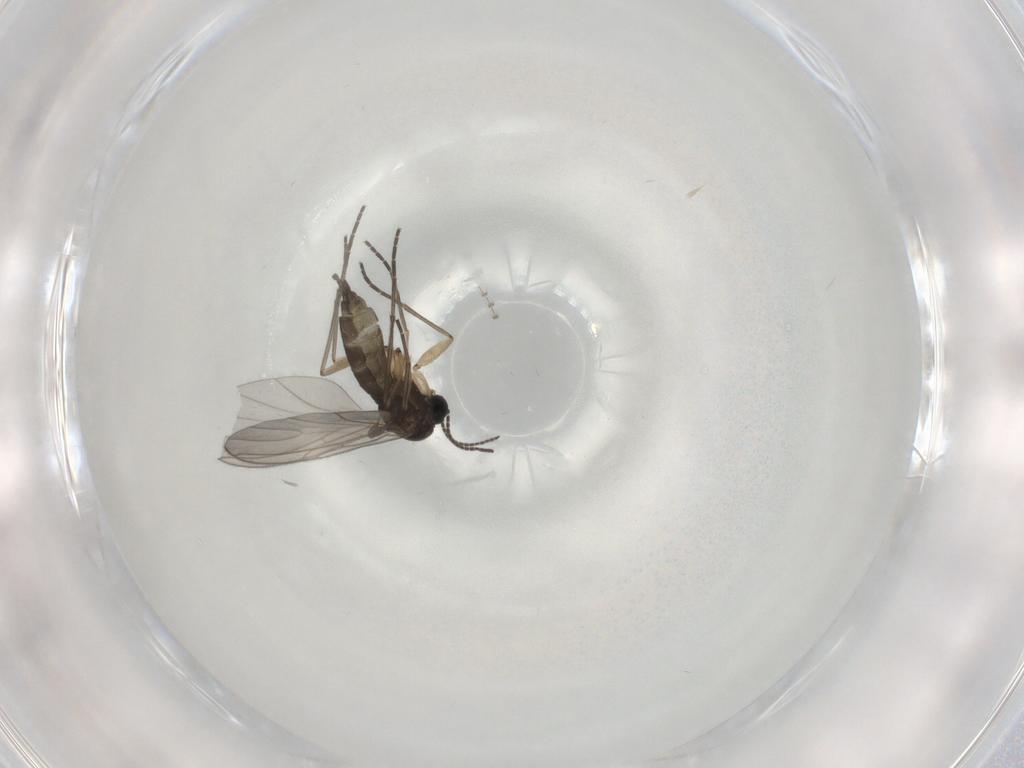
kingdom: Animalia
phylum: Arthropoda
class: Insecta
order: Diptera
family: Sciaridae
